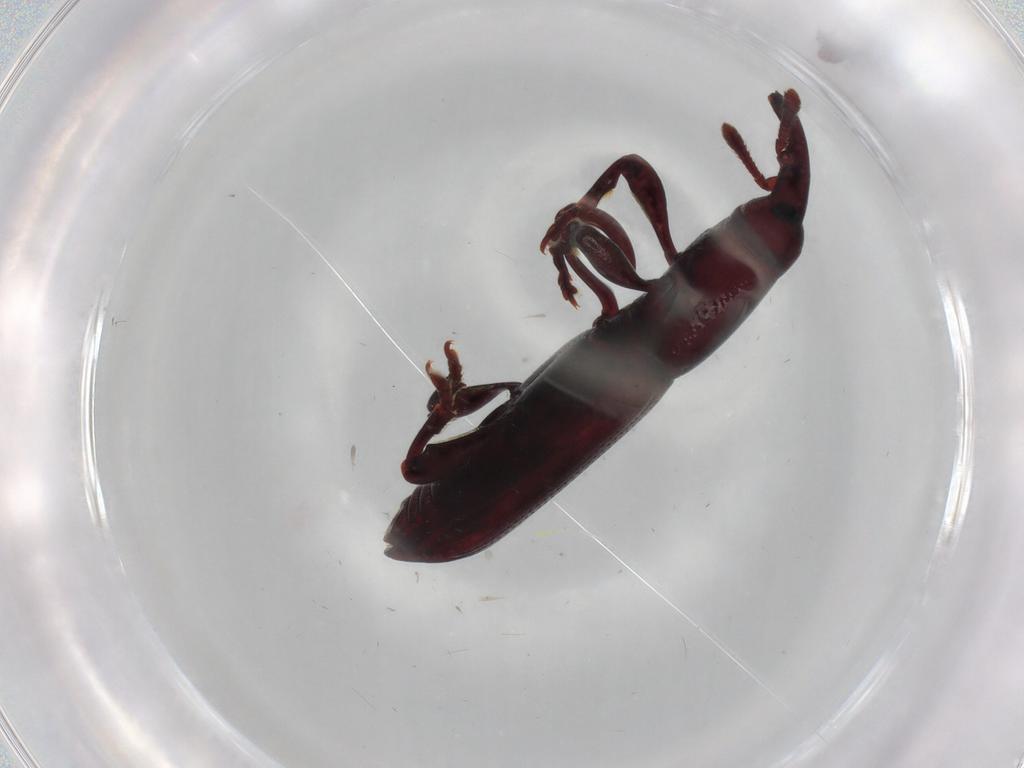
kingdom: Animalia
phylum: Arthropoda
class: Insecta
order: Coleoptera
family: Curculionidae
